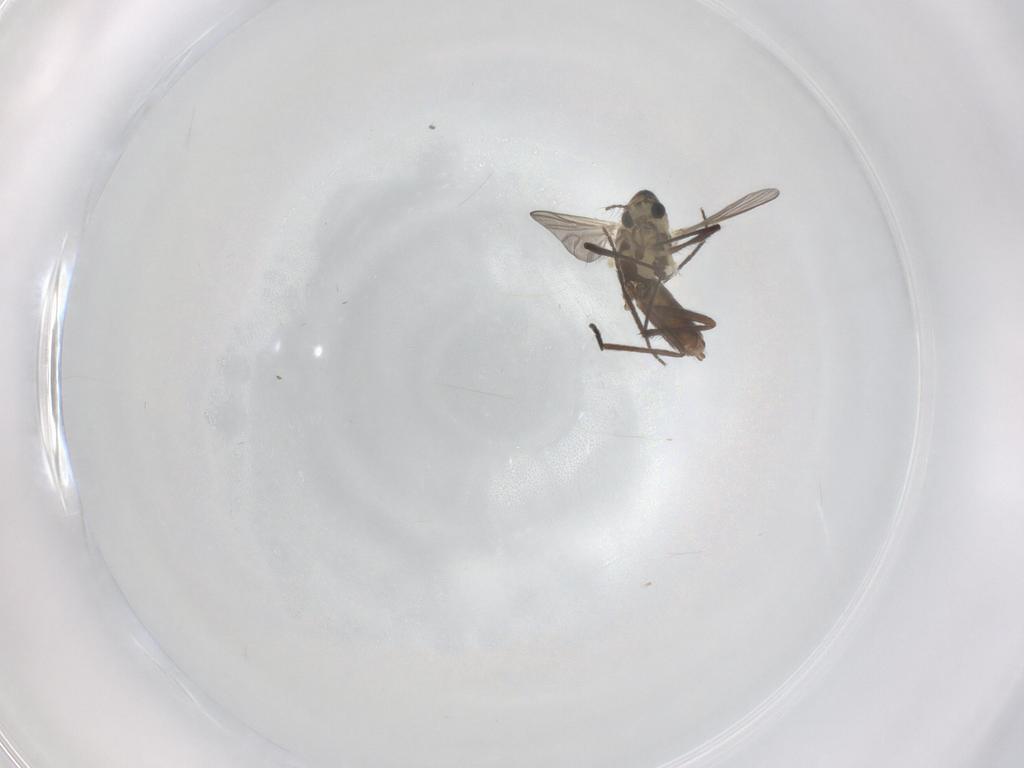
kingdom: Animalia
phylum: Arthropoda
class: Insecta
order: Diptera
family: Chironomidae
